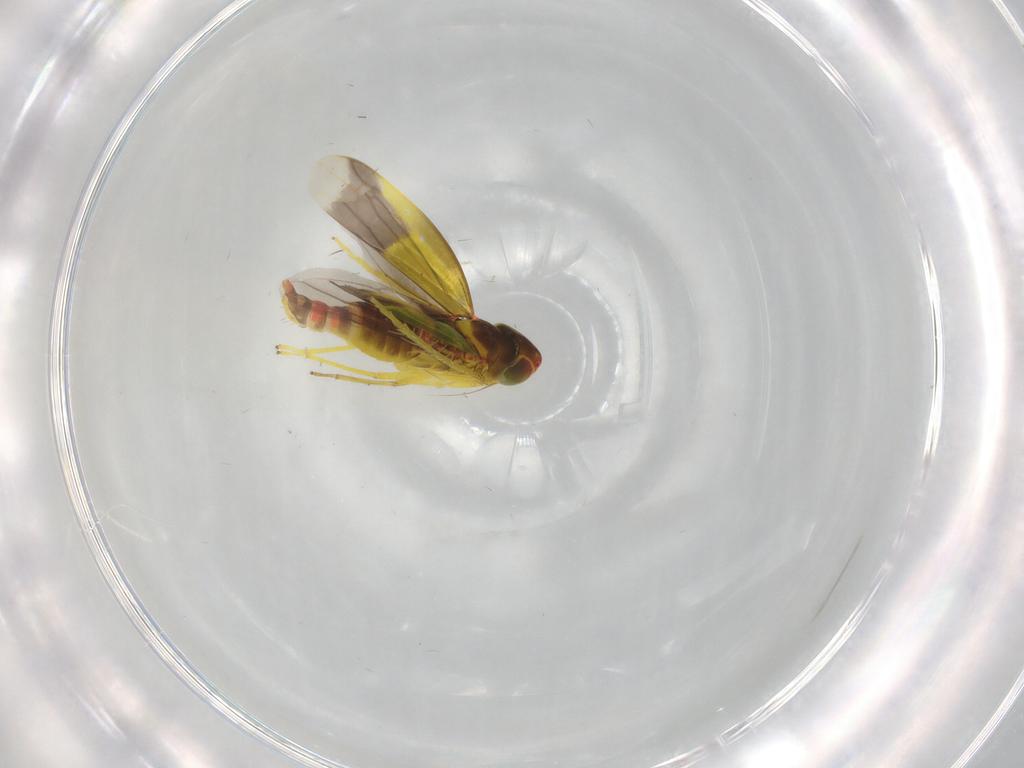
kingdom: Animalia
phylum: Arthropoda
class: Insecta
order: Hemiptera
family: Cicadellidae
